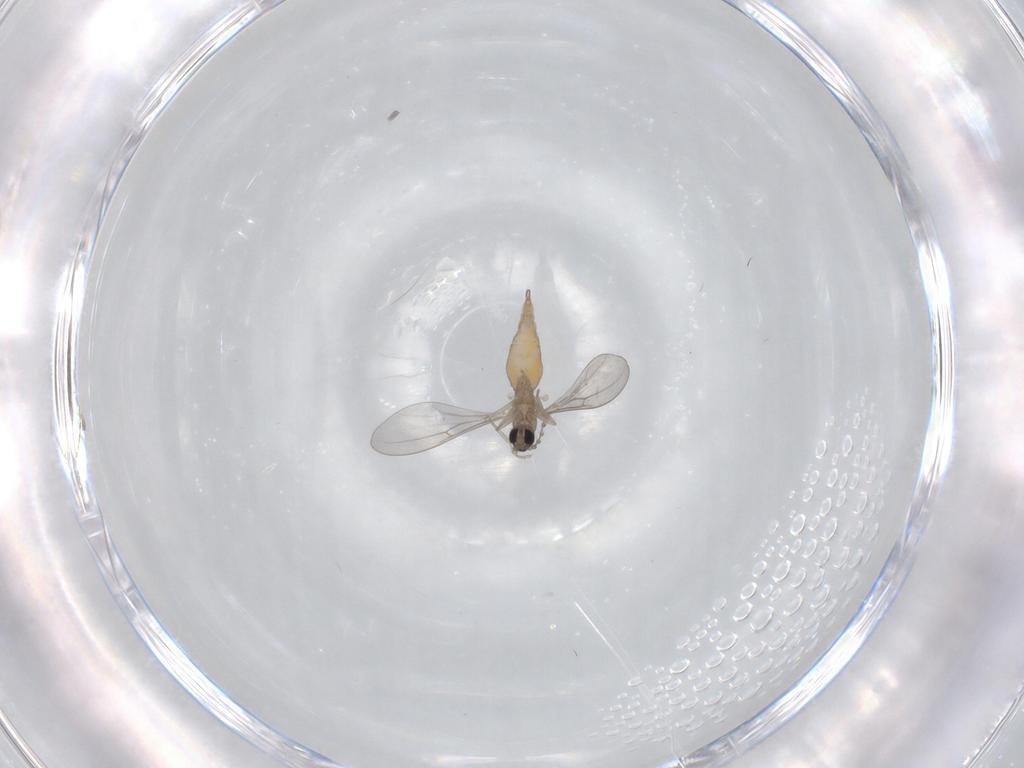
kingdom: Animalia
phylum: Arthropoda
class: Insecta
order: Diptera
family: Cecidomyiidae
